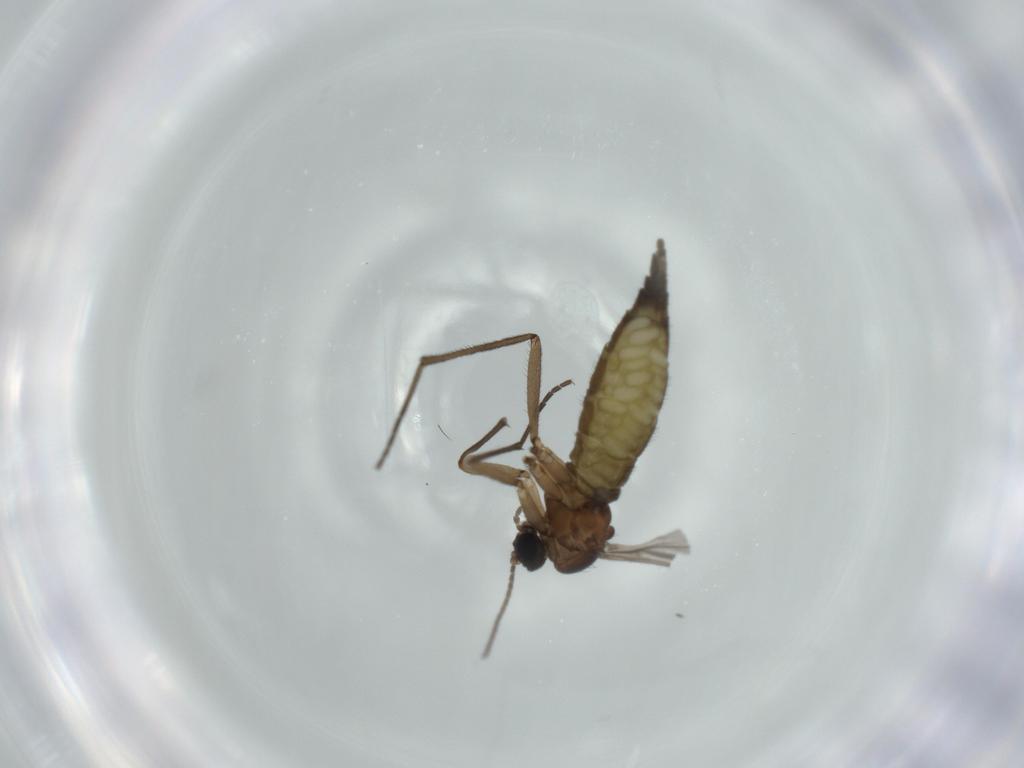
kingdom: Animalia
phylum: Arthropoda
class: Insecta
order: Diptera
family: Sciaridae
